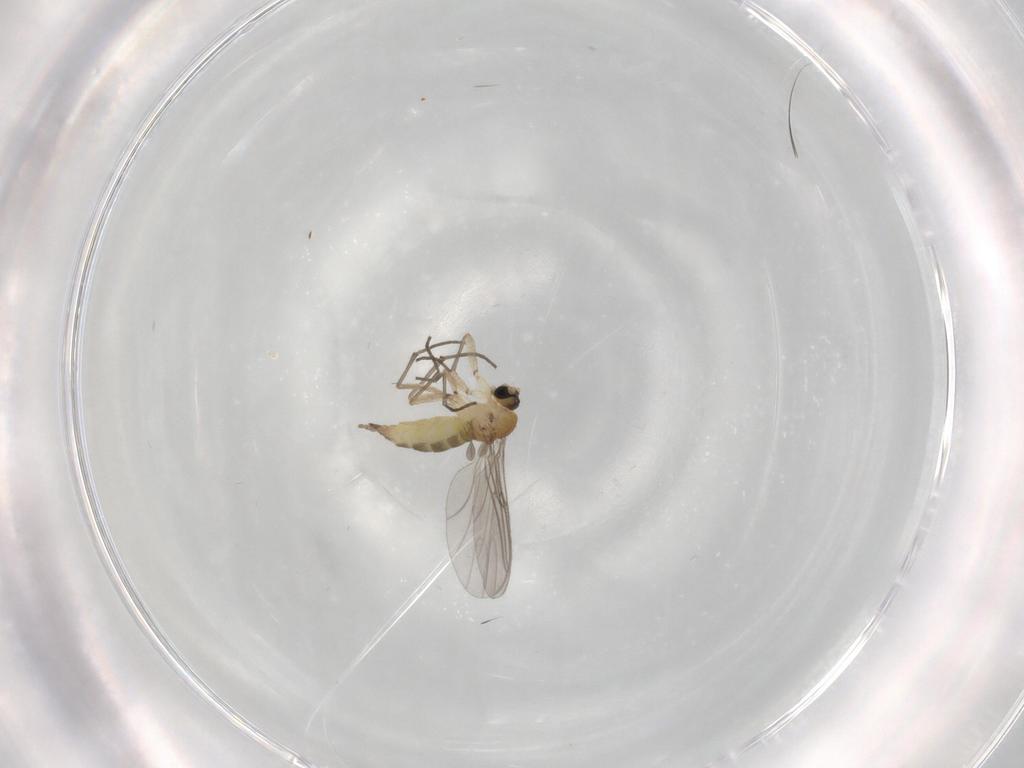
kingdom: Animalia
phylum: Arthropoda
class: Insecta
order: Diptera
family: Sciaridae
